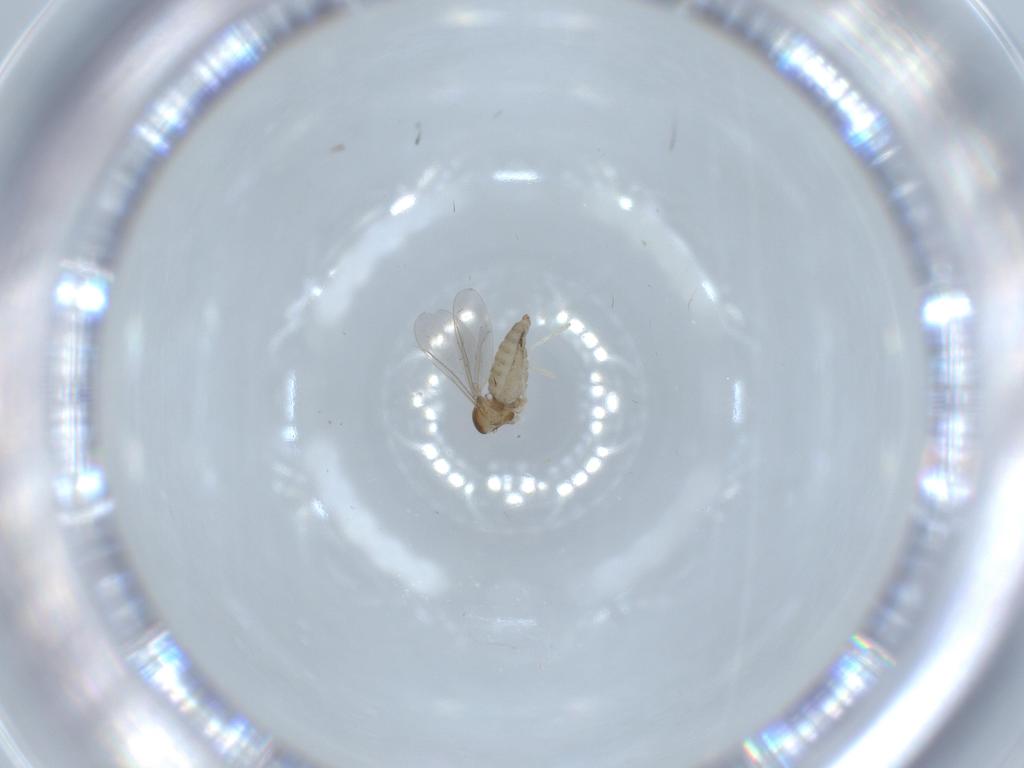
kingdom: Animalia
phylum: Arthropoda
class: Insecta
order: Diptera
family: Cecidomyiidae
